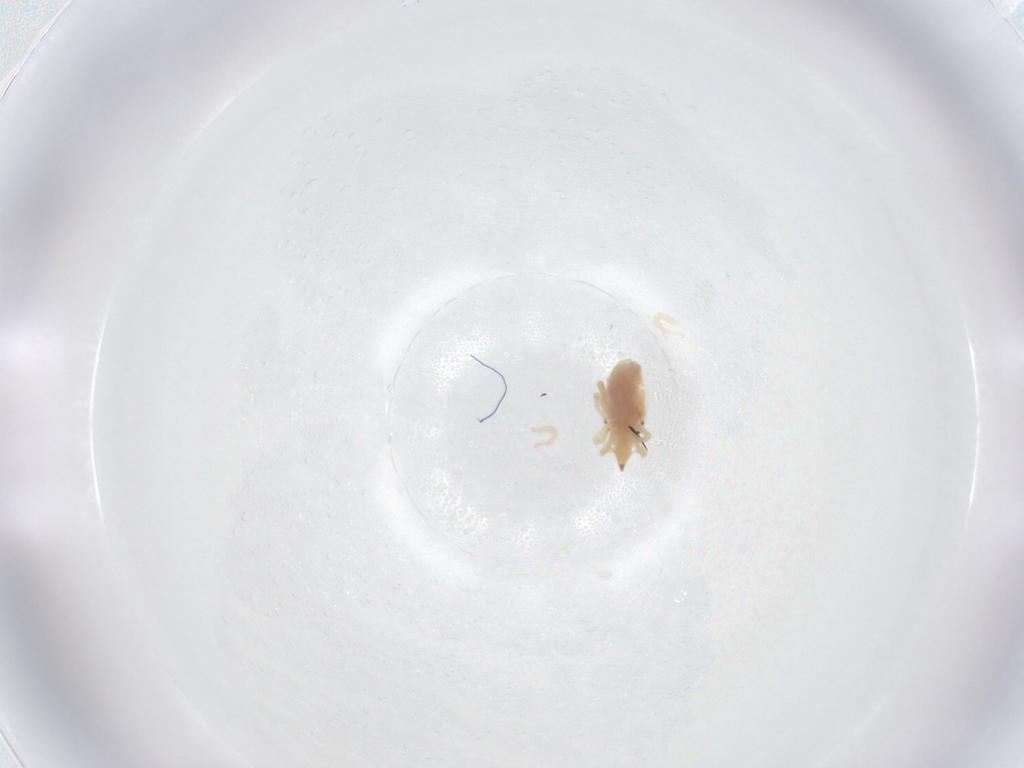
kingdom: Animalia
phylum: Arthropoda
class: Arachnida
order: Trombidiformes
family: Bdellidae
